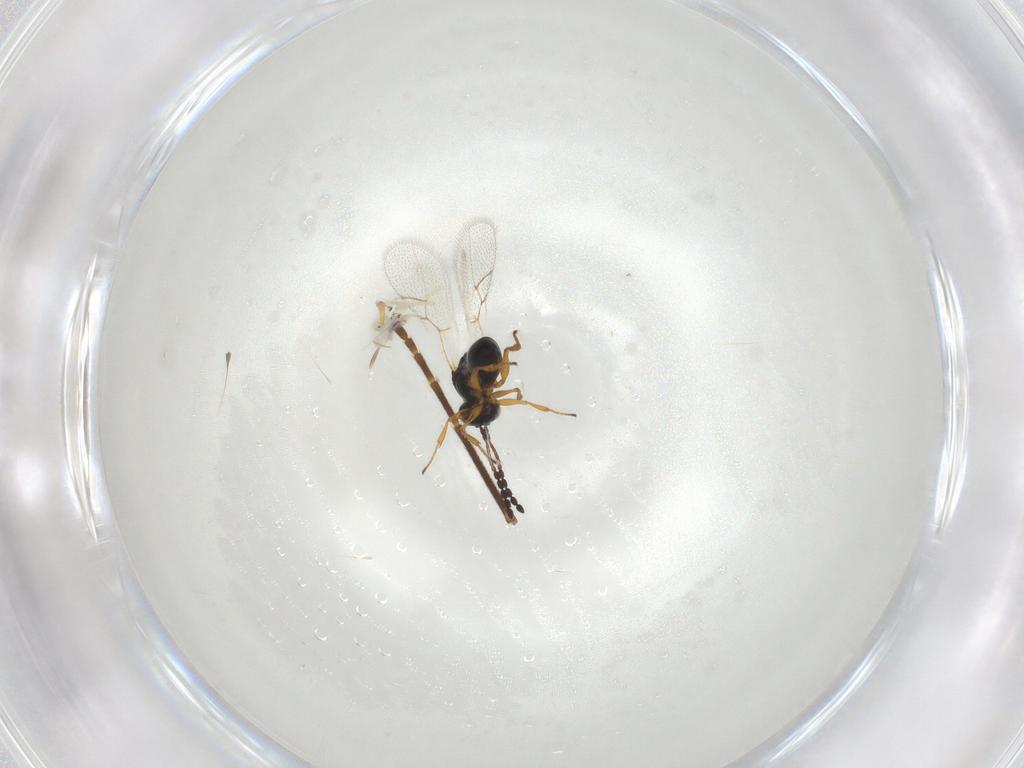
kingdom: Animalia
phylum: Arthropoda
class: Insecta
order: Hymenoptera
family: Figitidae
